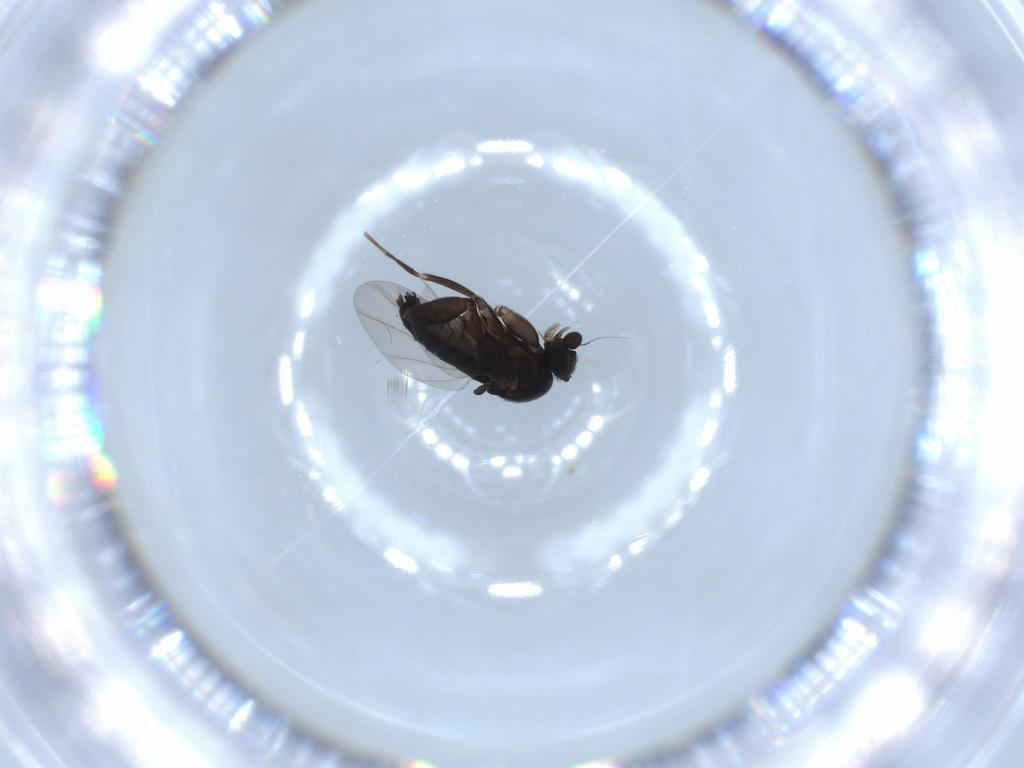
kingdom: Animalia
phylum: Arthropoda
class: Insecta
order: Diptera
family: Phoridae
